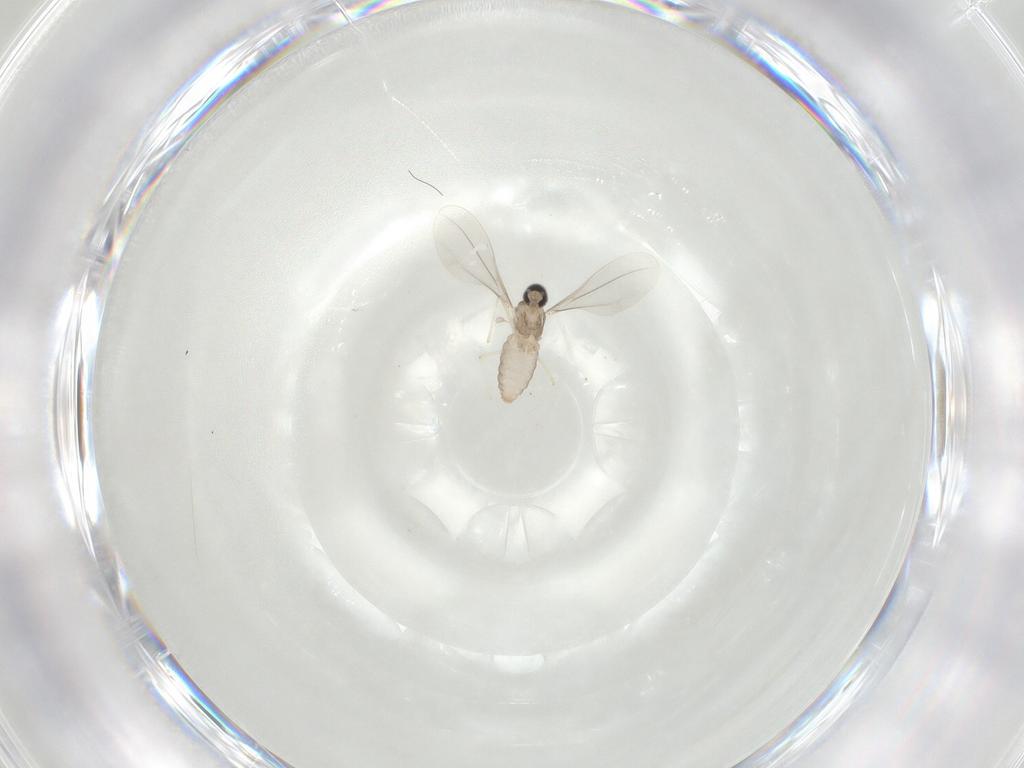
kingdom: Animalia
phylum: Arthropoda
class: Insecta
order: Diptera
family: Cecidomyiidae
